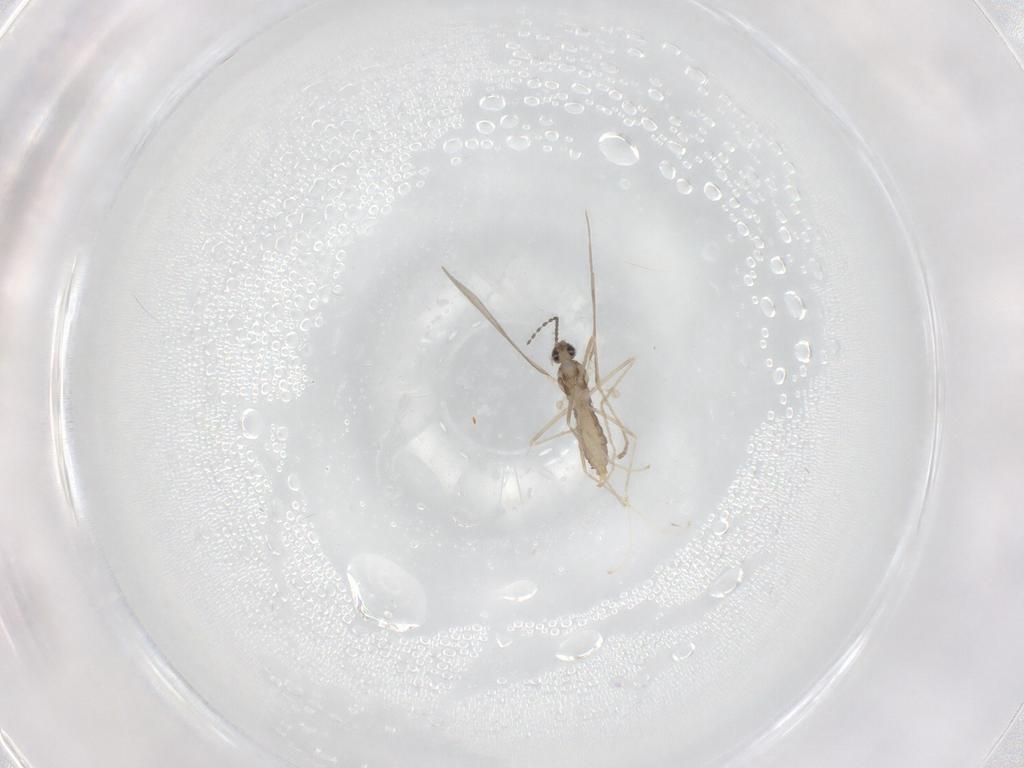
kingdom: Animalia
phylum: Arthropoda
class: Insecta
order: Diptera
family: Cecidomyiidae
